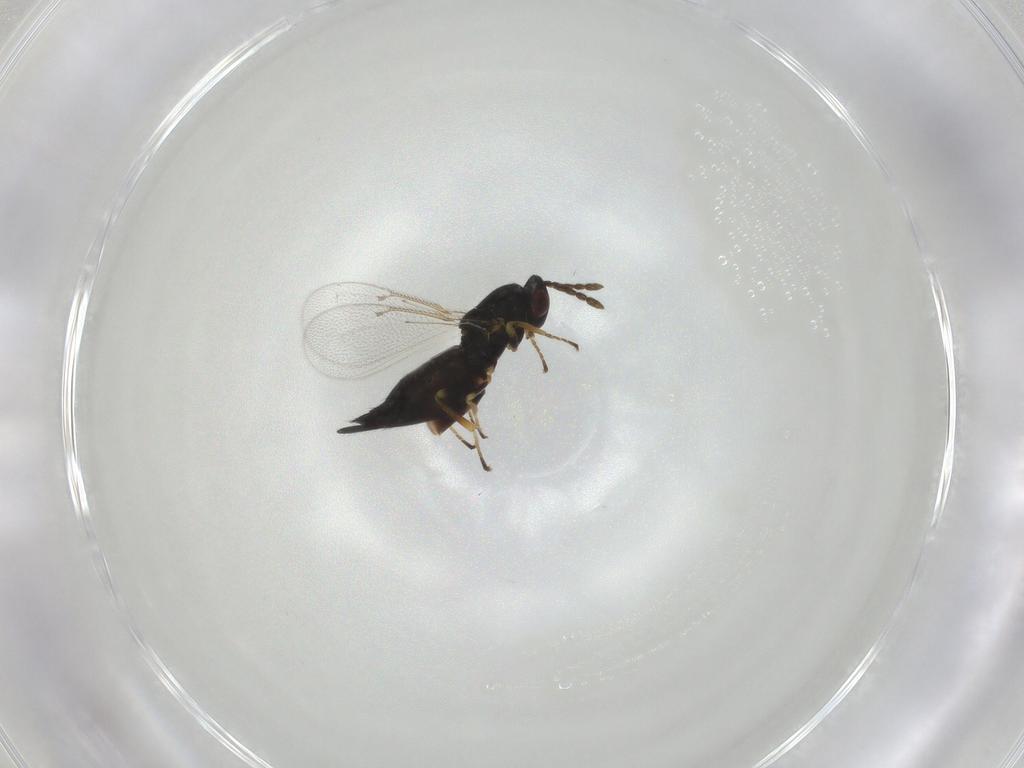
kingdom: Animalia
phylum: Arthropoda
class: Insecta
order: Hymenoptera
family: Eulophidae
